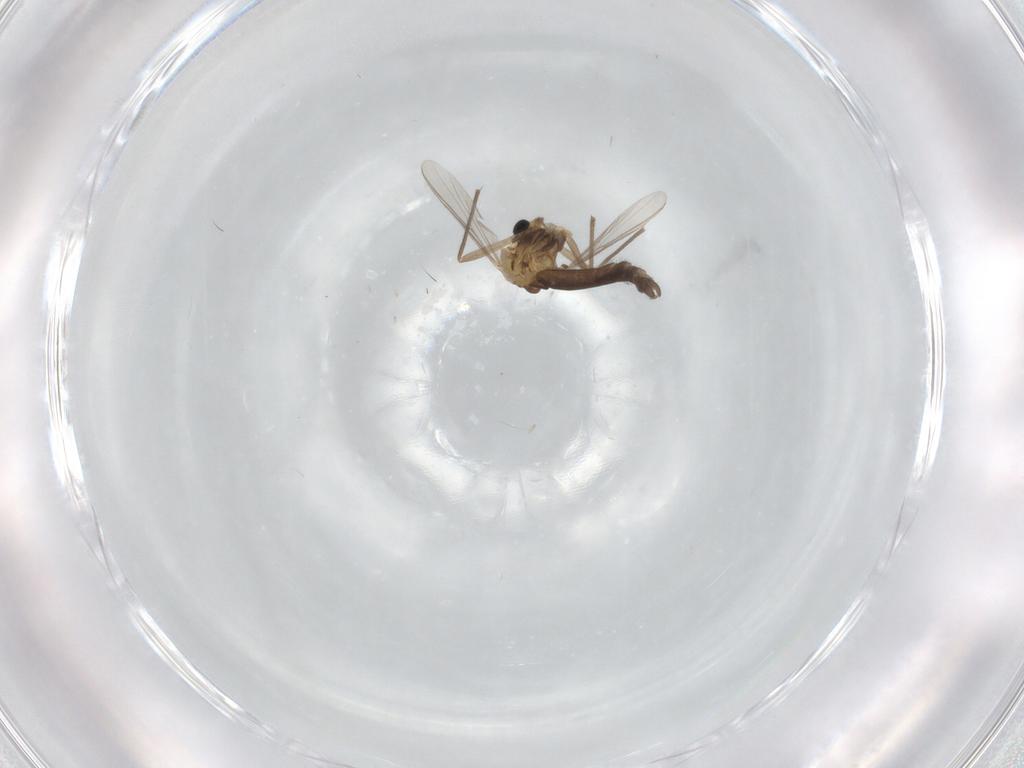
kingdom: Animalia
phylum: Arthropoda
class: Insecta
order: Diptera
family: Chironomidae
